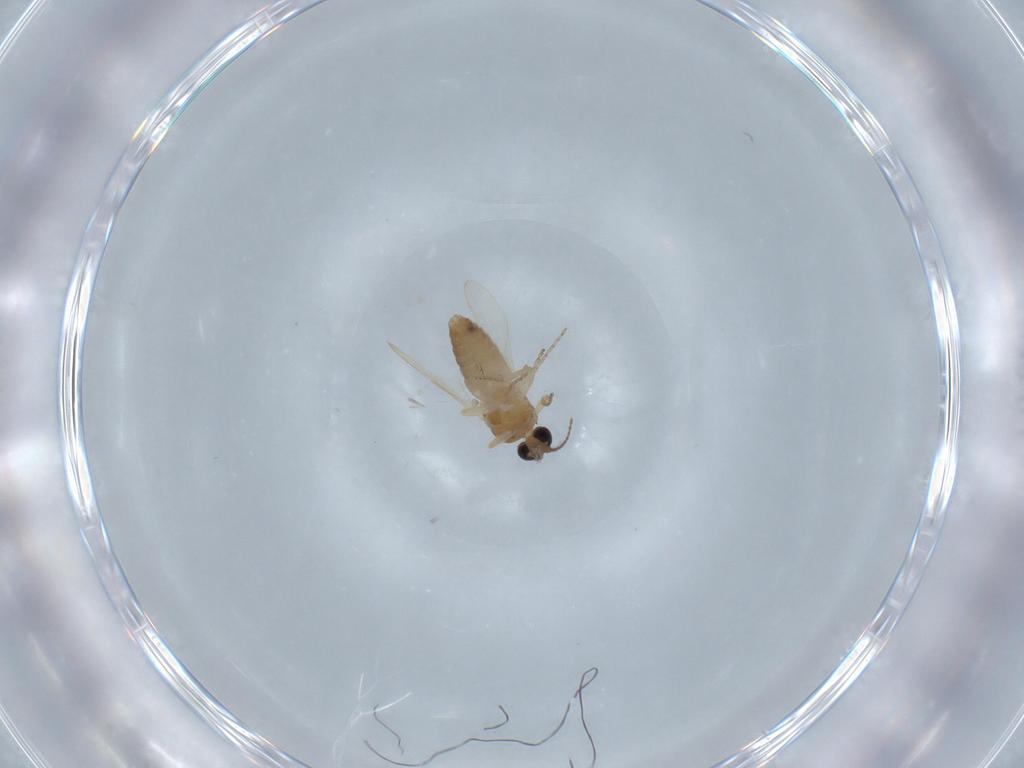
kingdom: Animalia
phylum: Arthropoda
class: Insecta
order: Diptera
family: Ceratopogonidae
